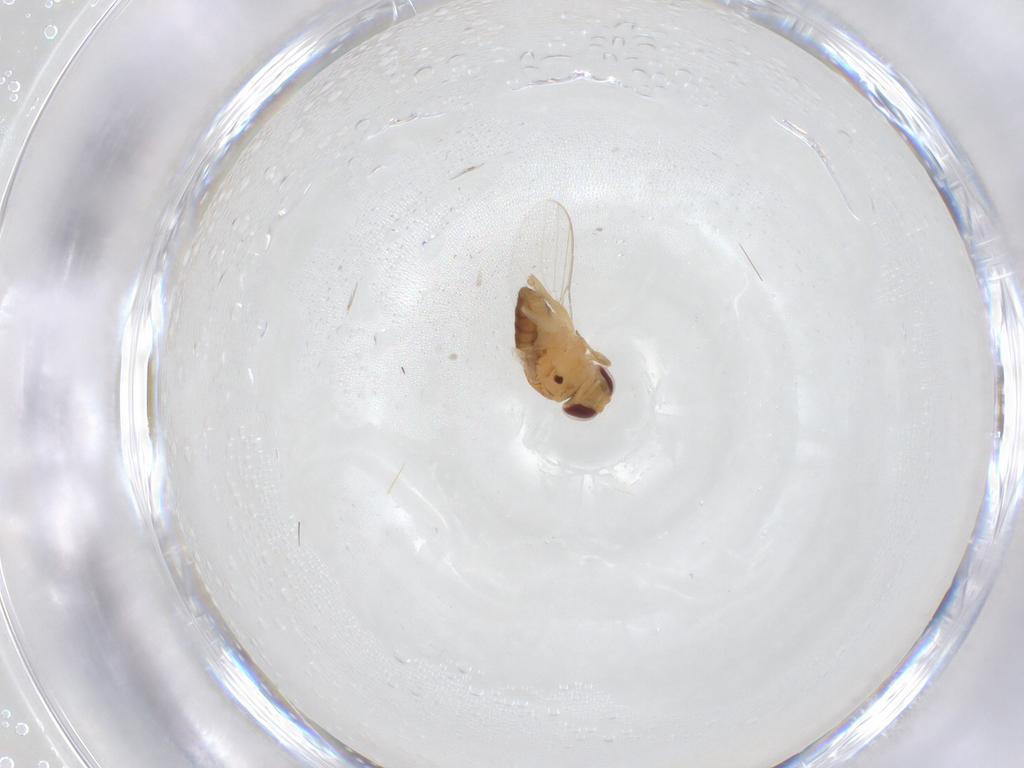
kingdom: Animalia
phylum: Arthropoda
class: Insecta
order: Diptera
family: Chloropidae
